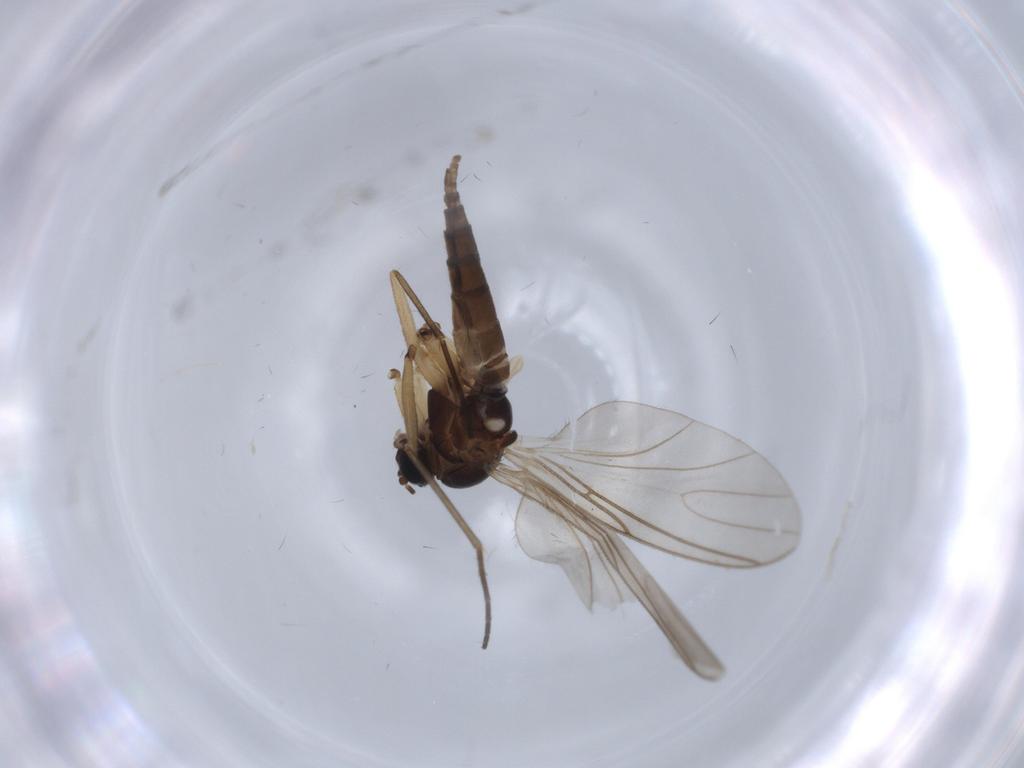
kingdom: Animalia
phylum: Arthropoda
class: Insecta
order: Diptera
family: Sciaridae
